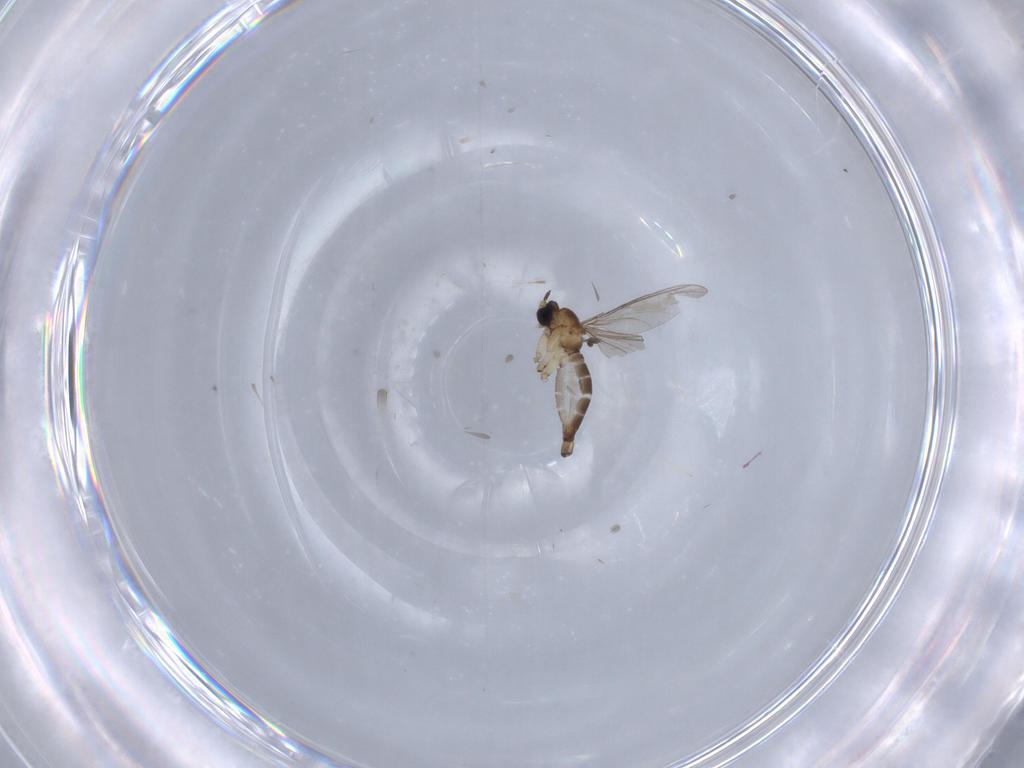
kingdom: Animalia
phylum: Arthropoda
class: Insecta
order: Diptera
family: Sciaridae
